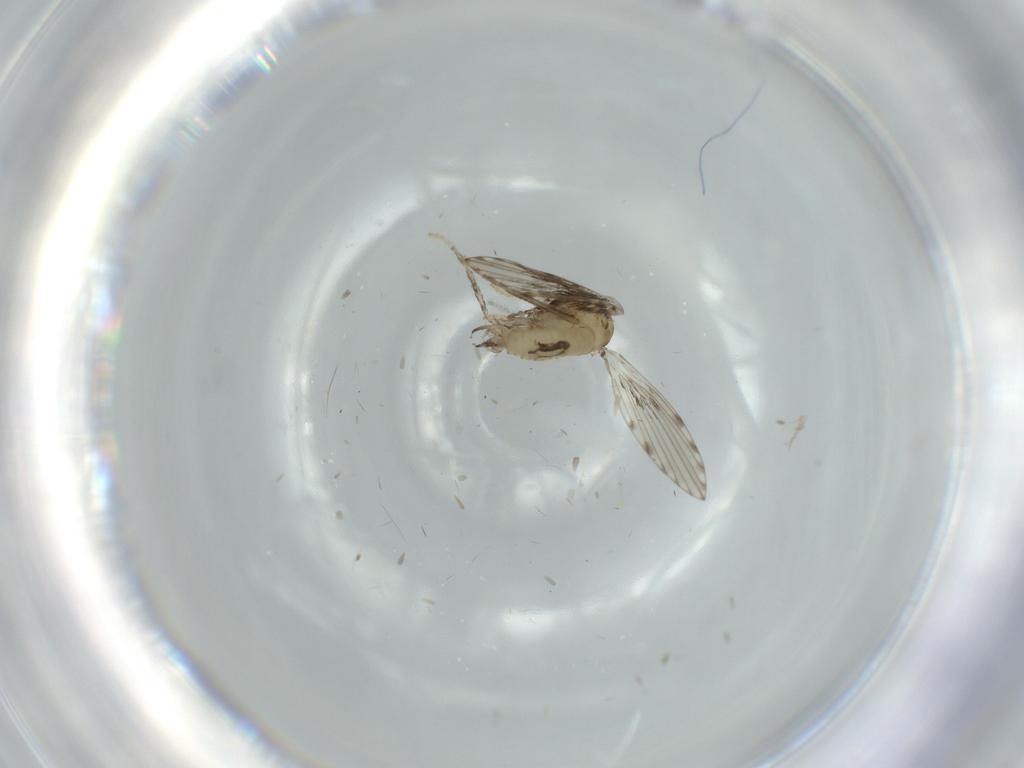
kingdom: Animalia
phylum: Arthropoda
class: Insecta
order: Diptera
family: Psychodidae
